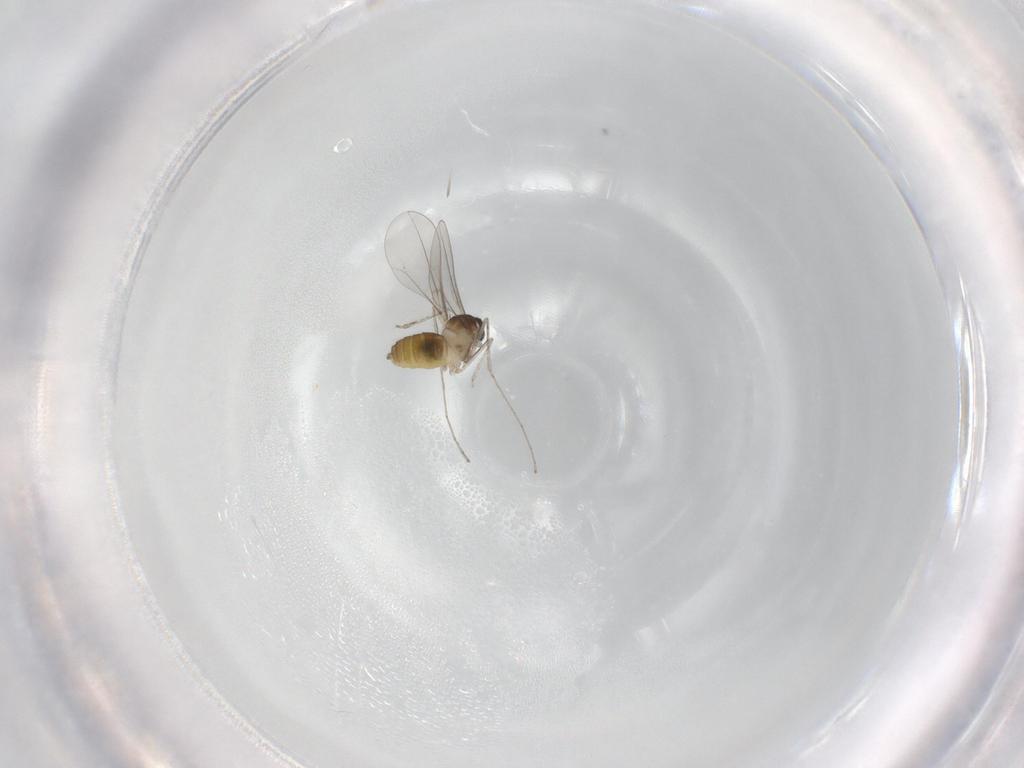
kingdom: Animalia
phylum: Arthropoda
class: Insecta
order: Diptera
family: Cecidomyiidae
